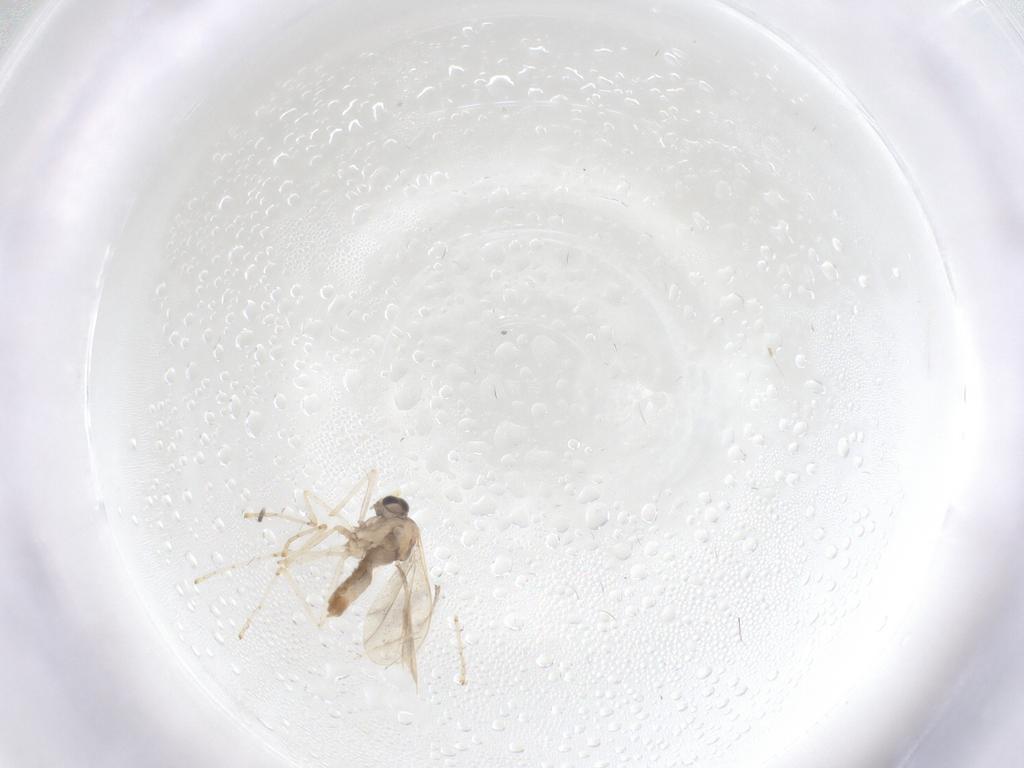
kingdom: Animalia
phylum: Arthropoda
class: Insecta
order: Diptera
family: Cecidomyiidae
